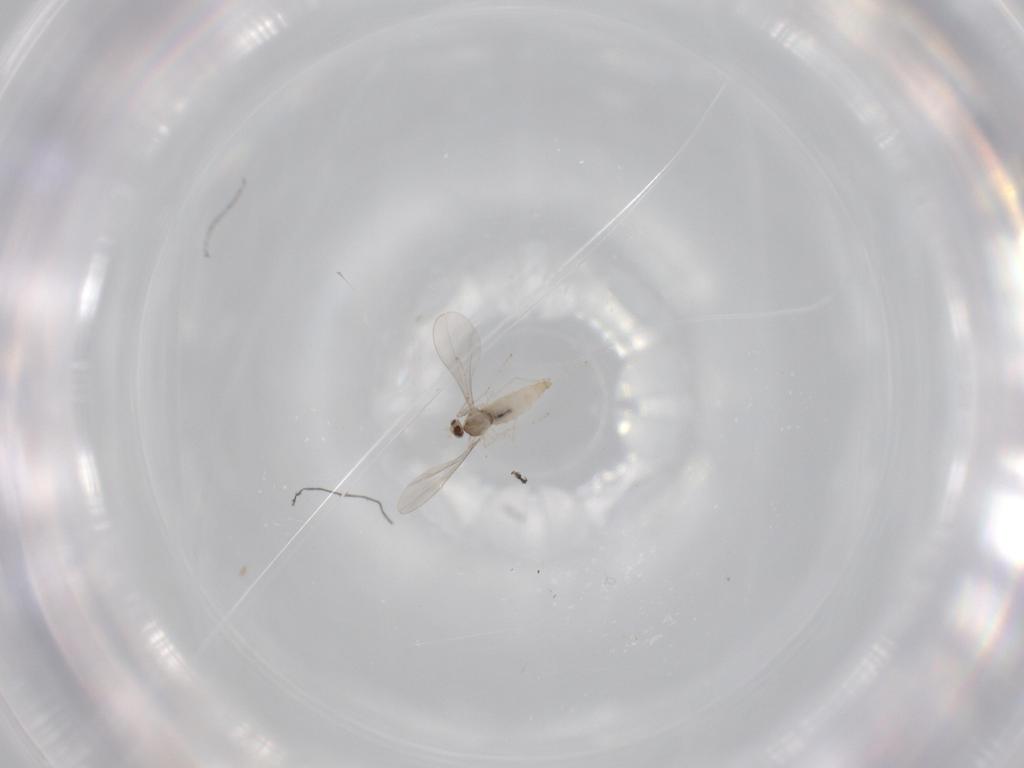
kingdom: Animalia
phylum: Arthropoda
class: Insecta
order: Diptera
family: Cecidomyiidae
